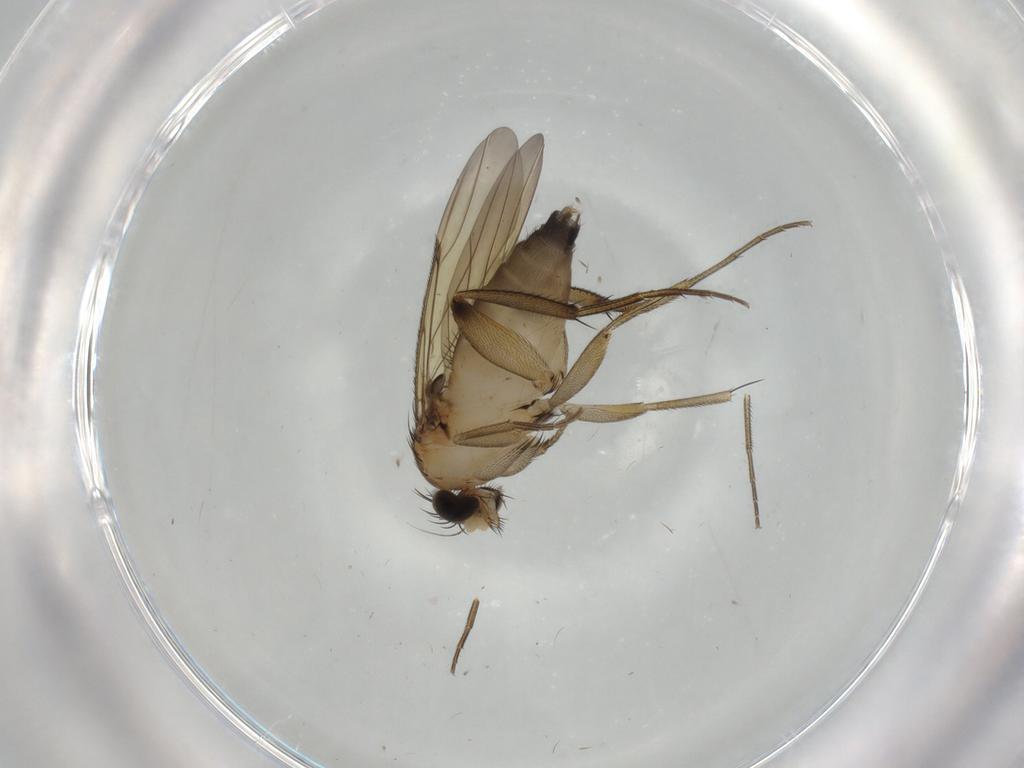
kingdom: Animalia
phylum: Arthropoda
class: Insecta
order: Diptera
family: Phoridae
